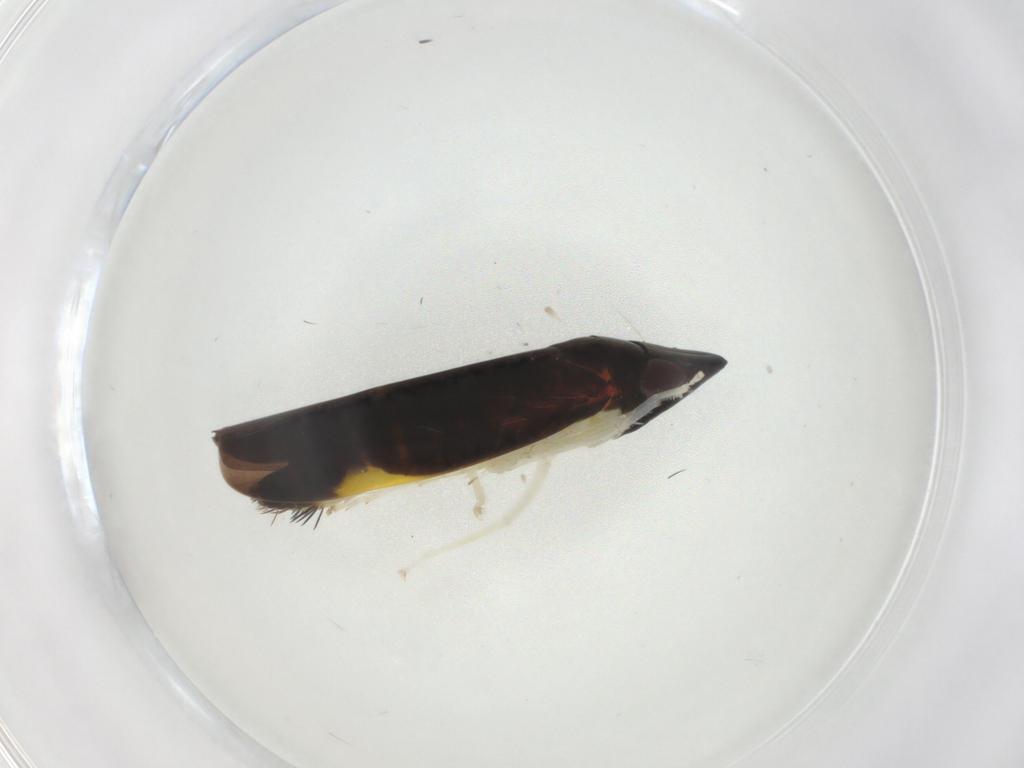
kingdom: Animalia
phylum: Arthropoda
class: Insecta
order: Hemiptera
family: Cicadellidae
